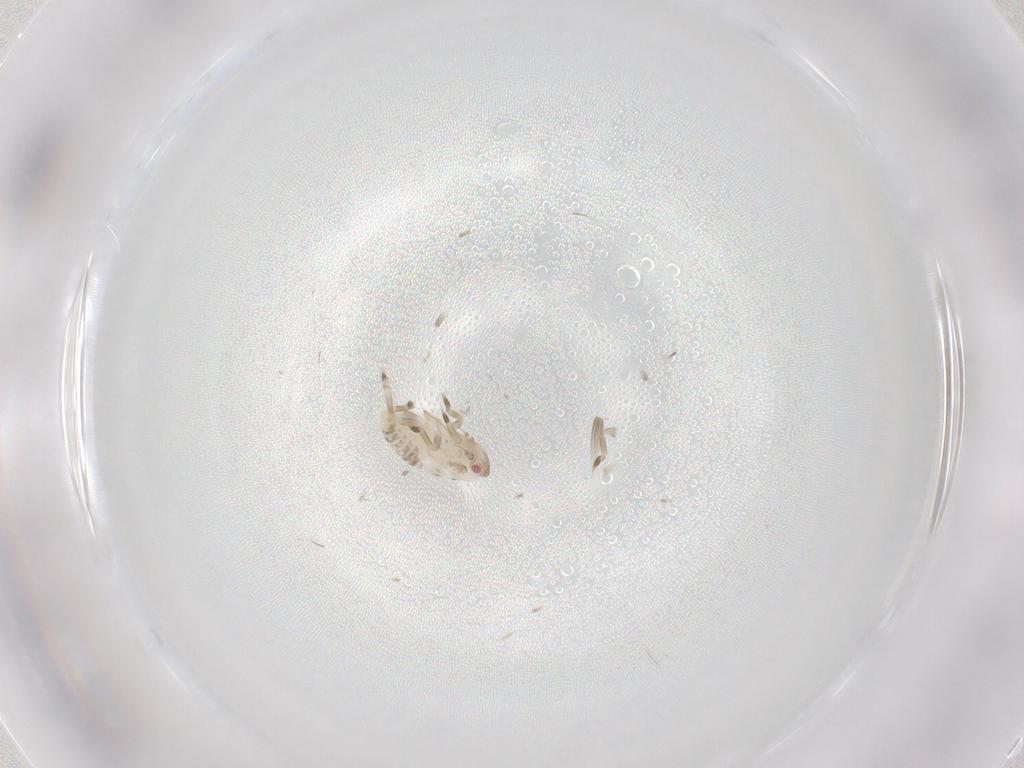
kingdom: Animalia
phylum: Arthropoda
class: Insecta
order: Hemiptera
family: Flatidae
